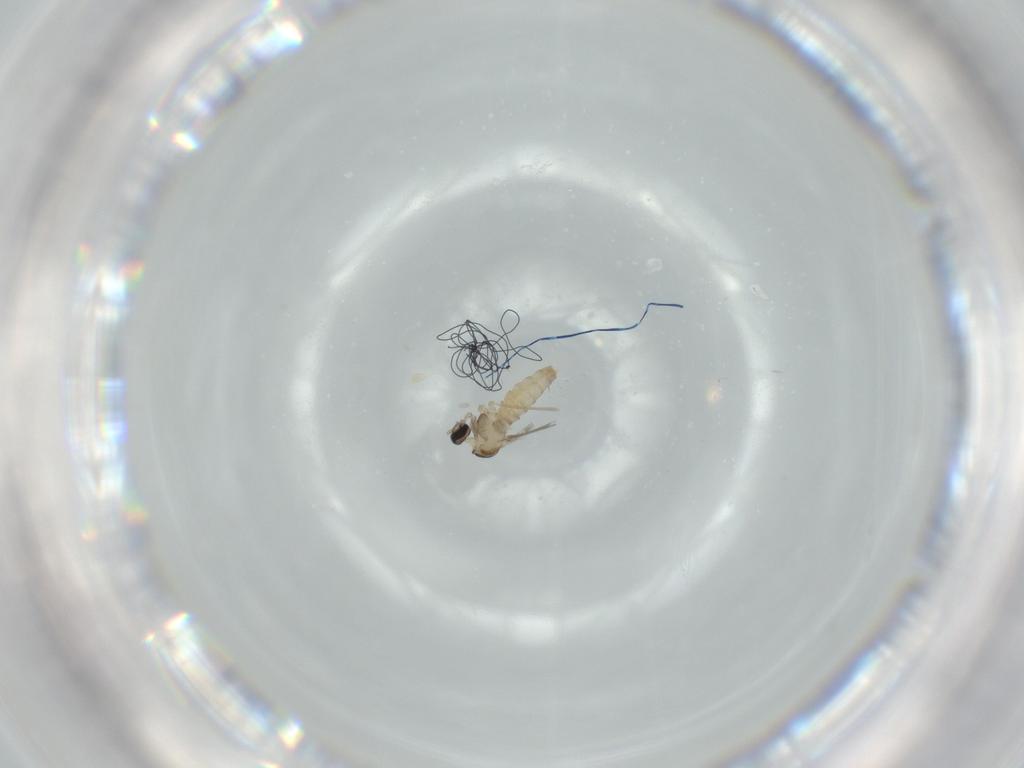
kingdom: Animalia
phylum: Arthropoda
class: Insecta
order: Diptera
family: Cecidomyiidae
